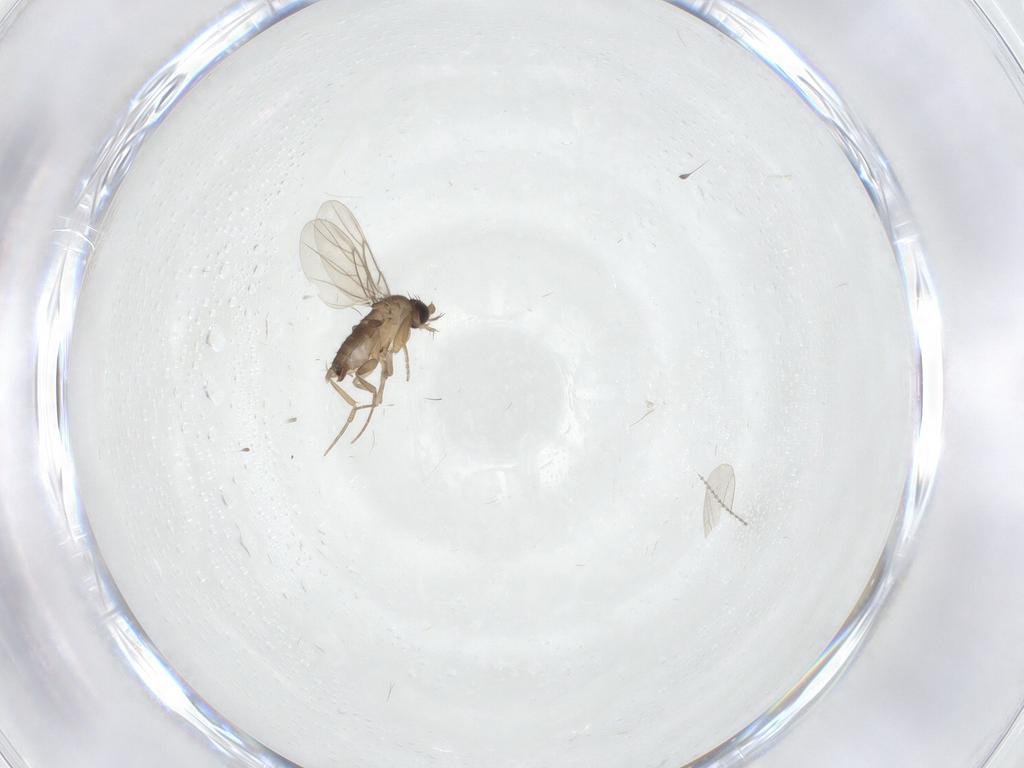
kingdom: Animalia
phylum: Arthropoda
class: Insecta
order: Diptera
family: Phoridae
